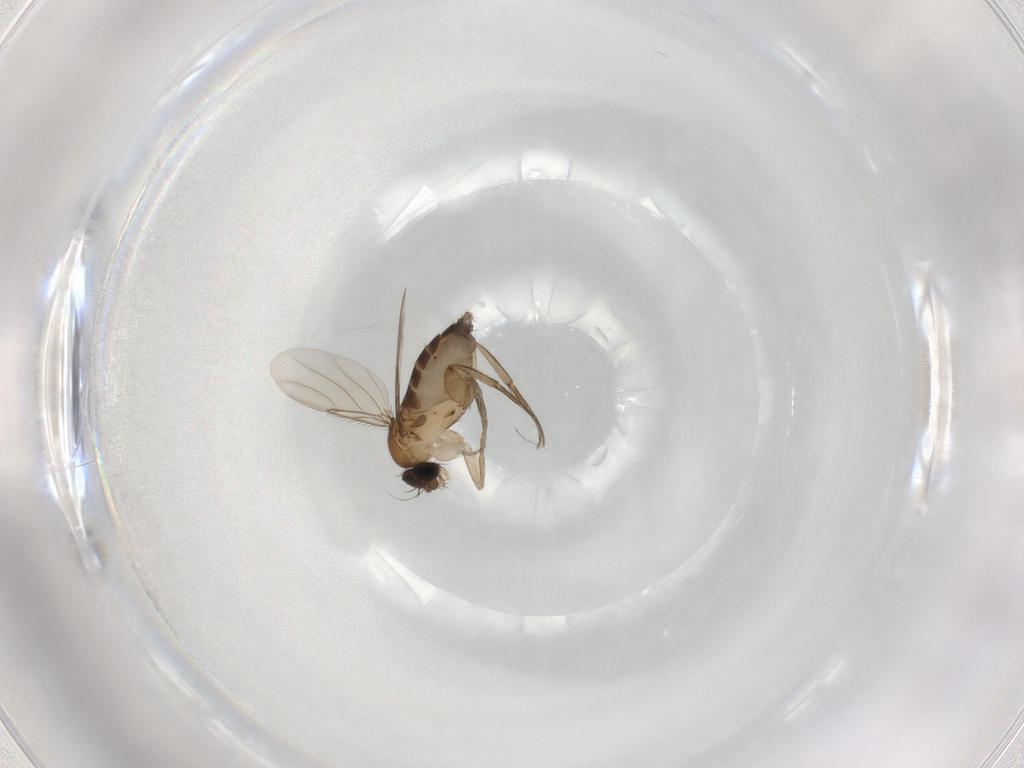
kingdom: Animalia
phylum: Arthropoda
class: Insecta
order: Diptera
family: Phoridae
